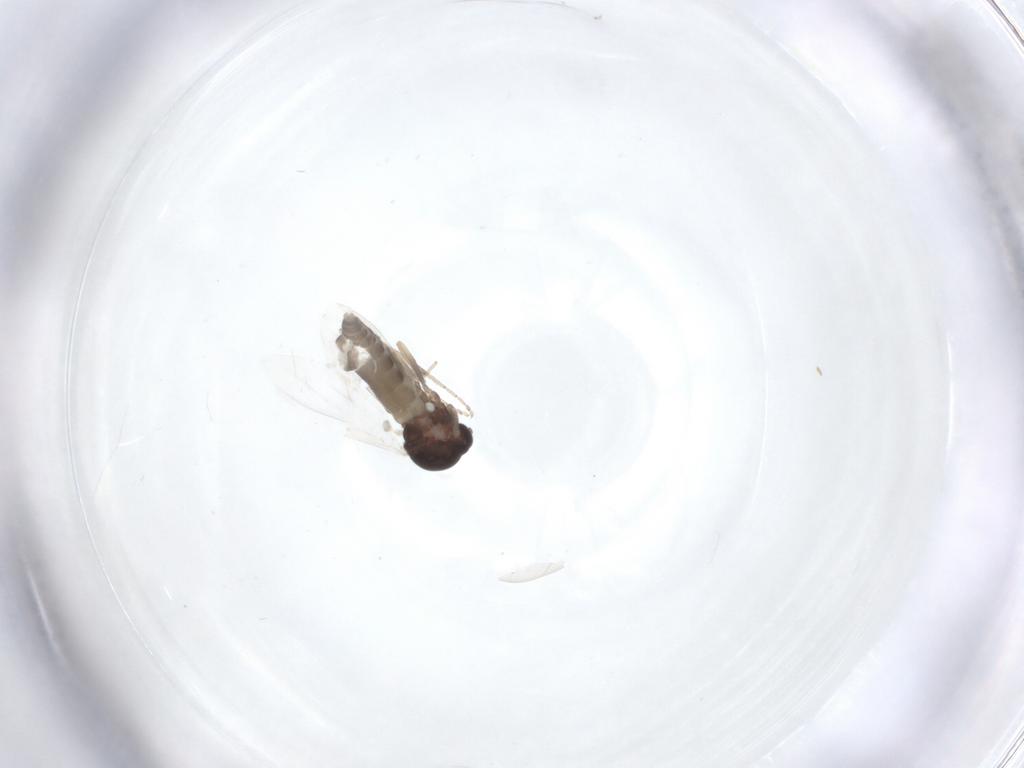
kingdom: Animalia
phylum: Arthropoda
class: Insecta
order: Diptera
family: Ceratopogonidae
